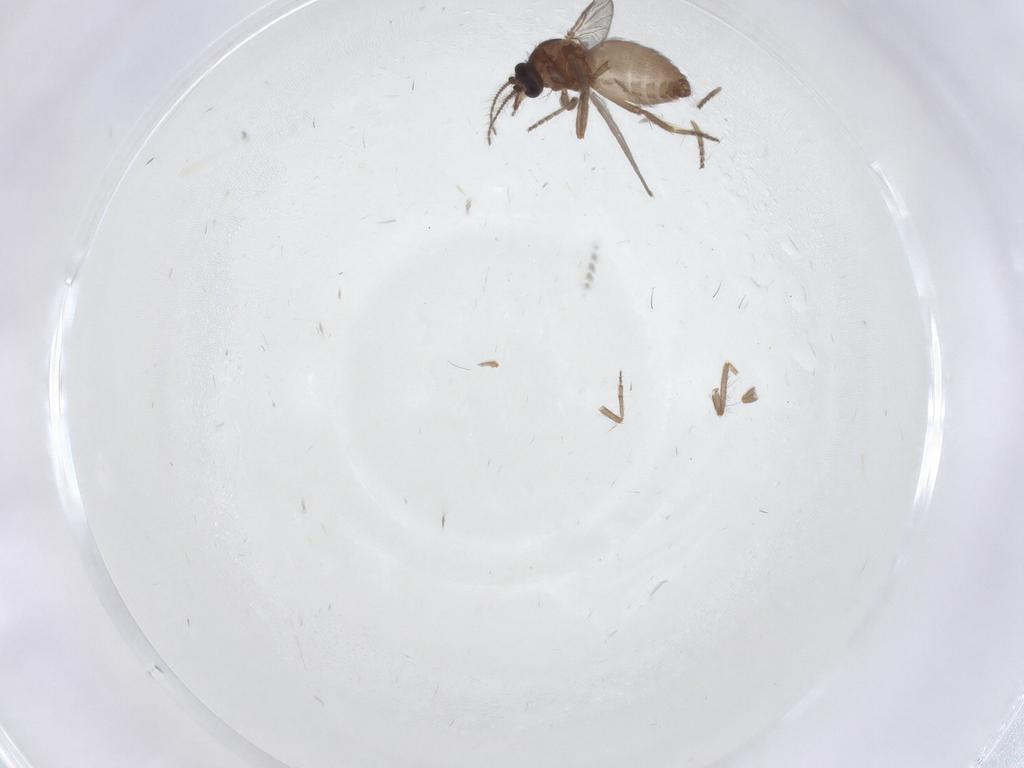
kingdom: Animalia
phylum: Arthropoda
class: Insecta
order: Diptera
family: Ceratopogonidae
